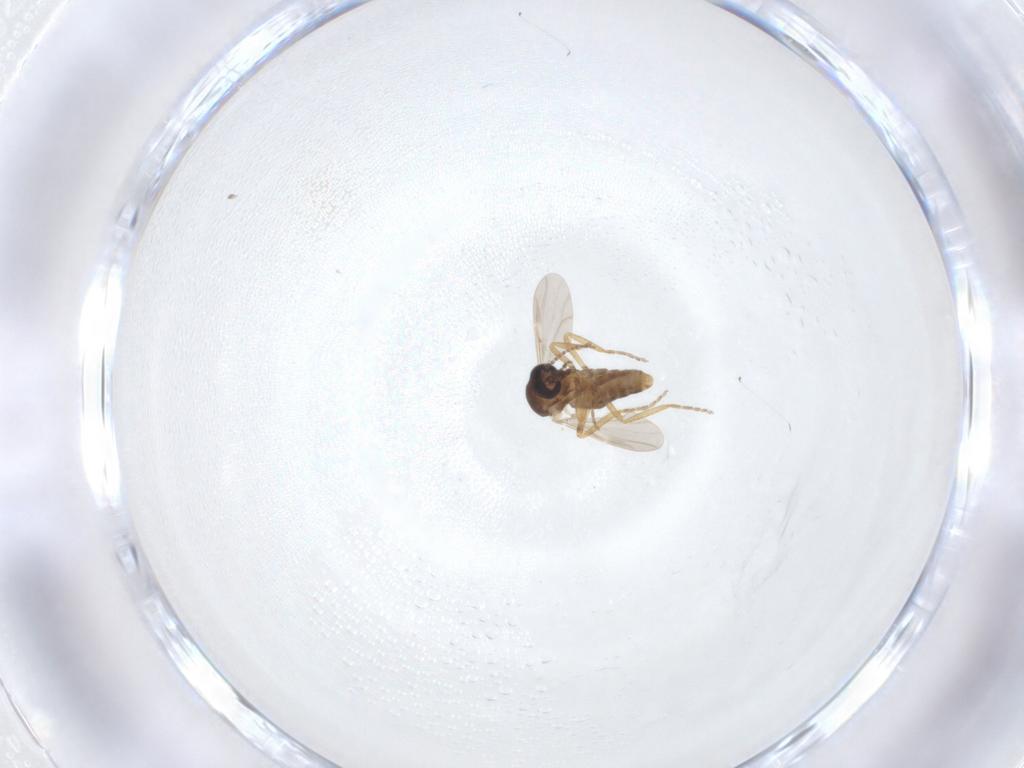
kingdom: Animalia
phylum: Arthropoda
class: Insecta
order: Diptera
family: Ceratopogonidae
